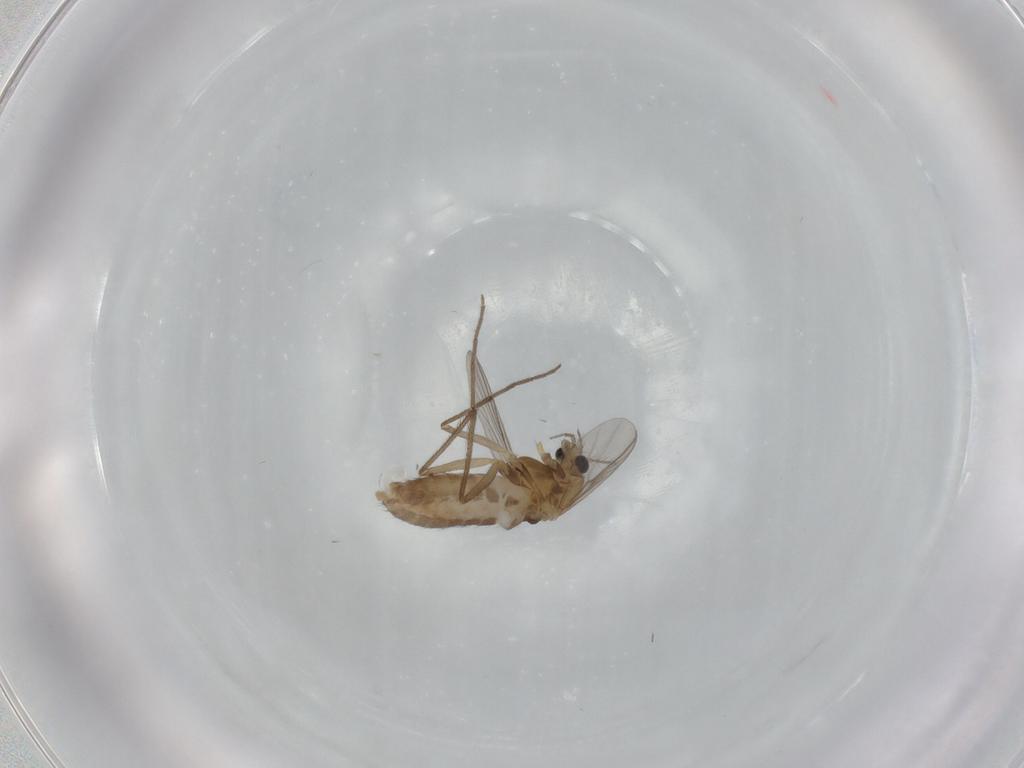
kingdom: Animalia
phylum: Arthropoda
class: Insecta
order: Diptera
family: Chironomidae
